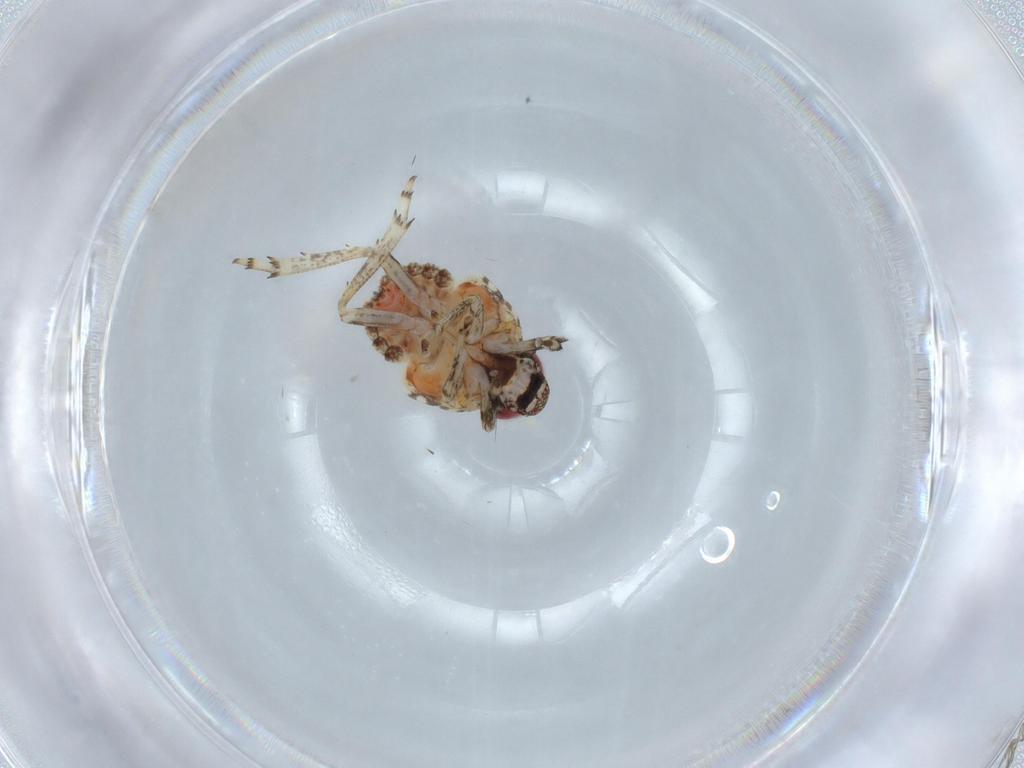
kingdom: Animalia
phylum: Arthropoda
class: Insecta
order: Hemiptera
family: Issidae
